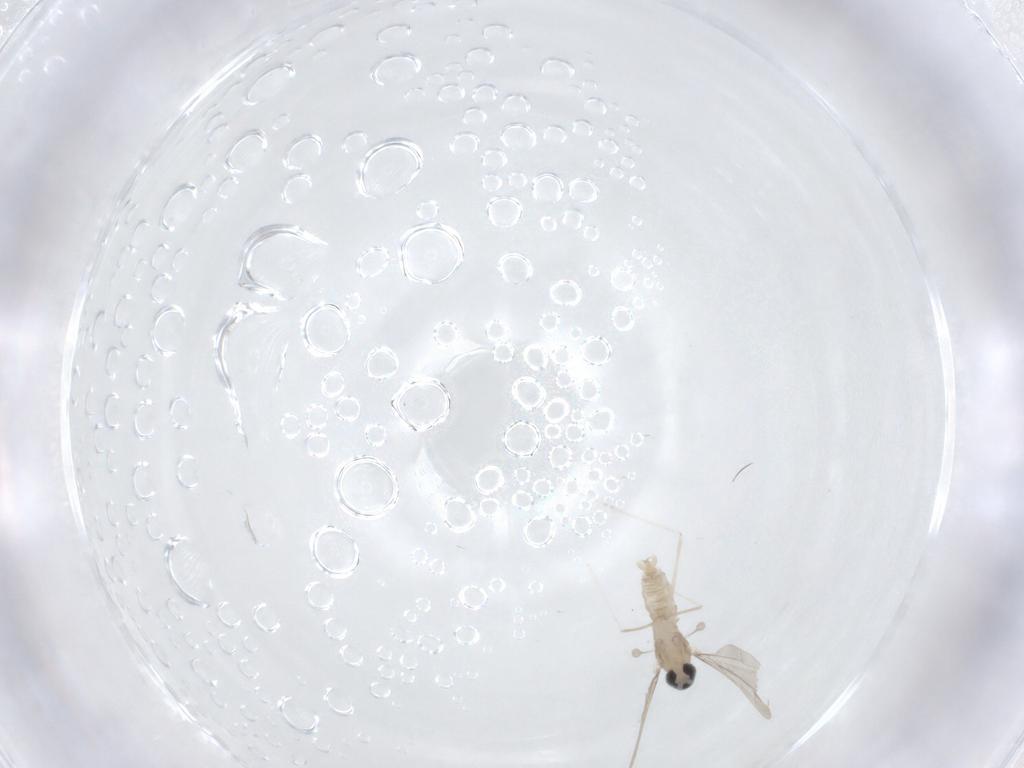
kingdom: Animalia
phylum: Arthropoda
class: Insecta
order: Diptera
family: Cecidomyiidae
